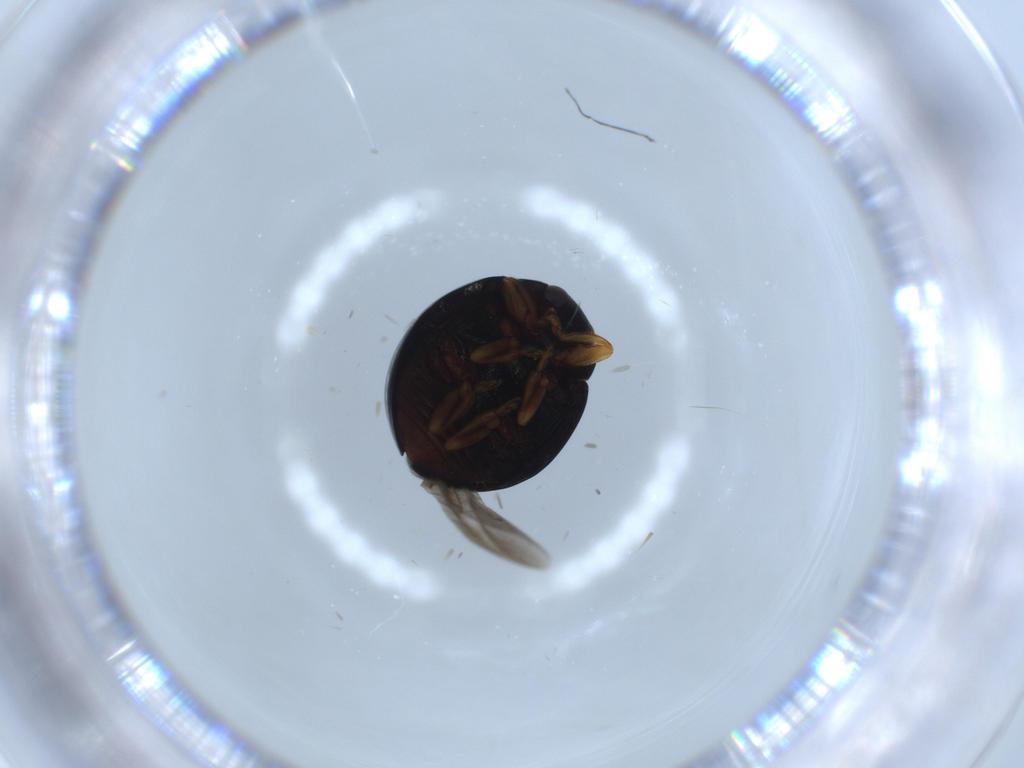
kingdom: Animalia
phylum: Arthropoda
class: Insecta
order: Coleoptera
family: Coccinellidae
